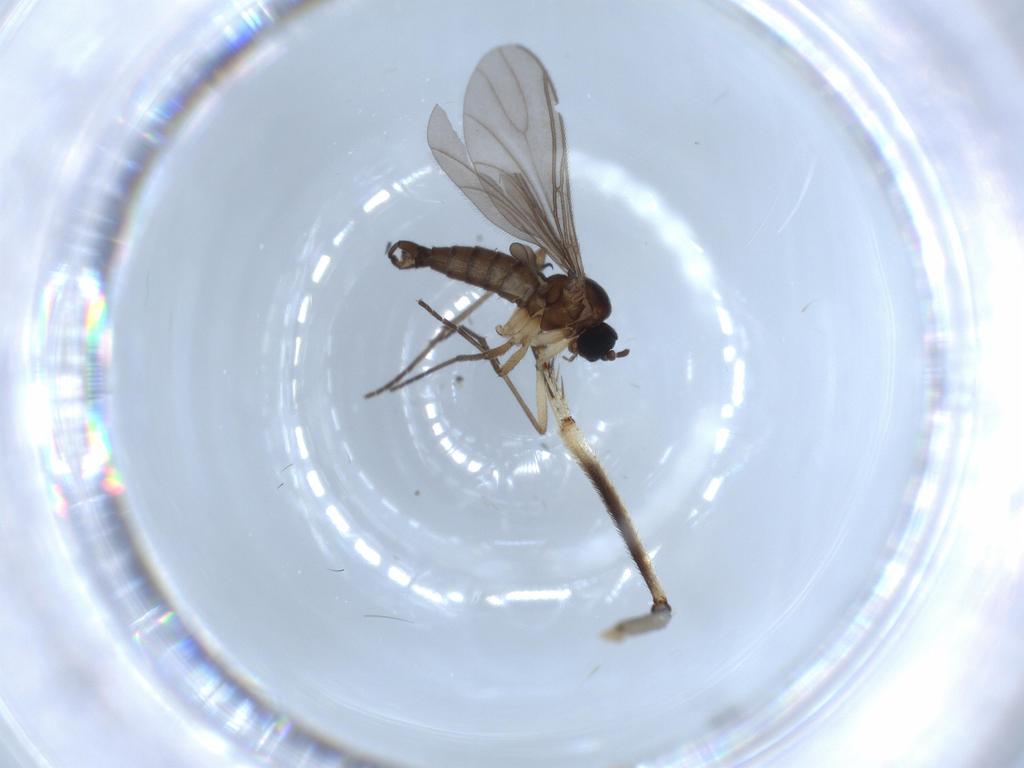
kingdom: Animalia
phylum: Arthropoda
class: Insecta
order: Diptera
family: Asilidae
